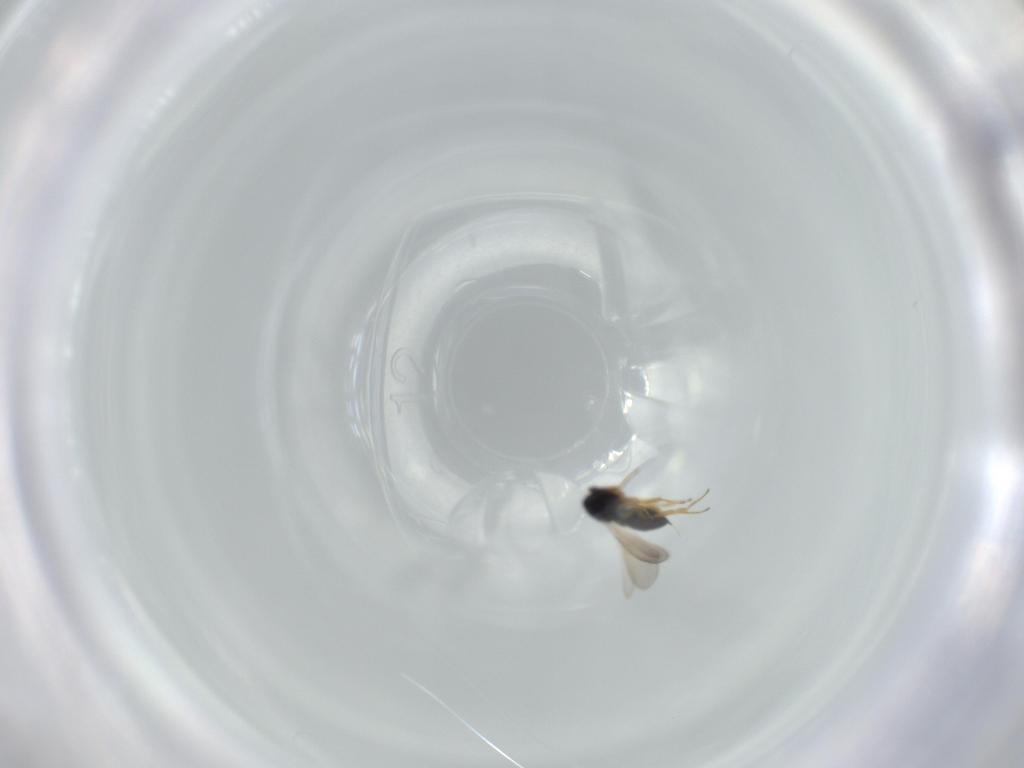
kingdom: Animalia
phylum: Arthropoda
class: Insecta
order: Hymenoptera
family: Scelionidae
